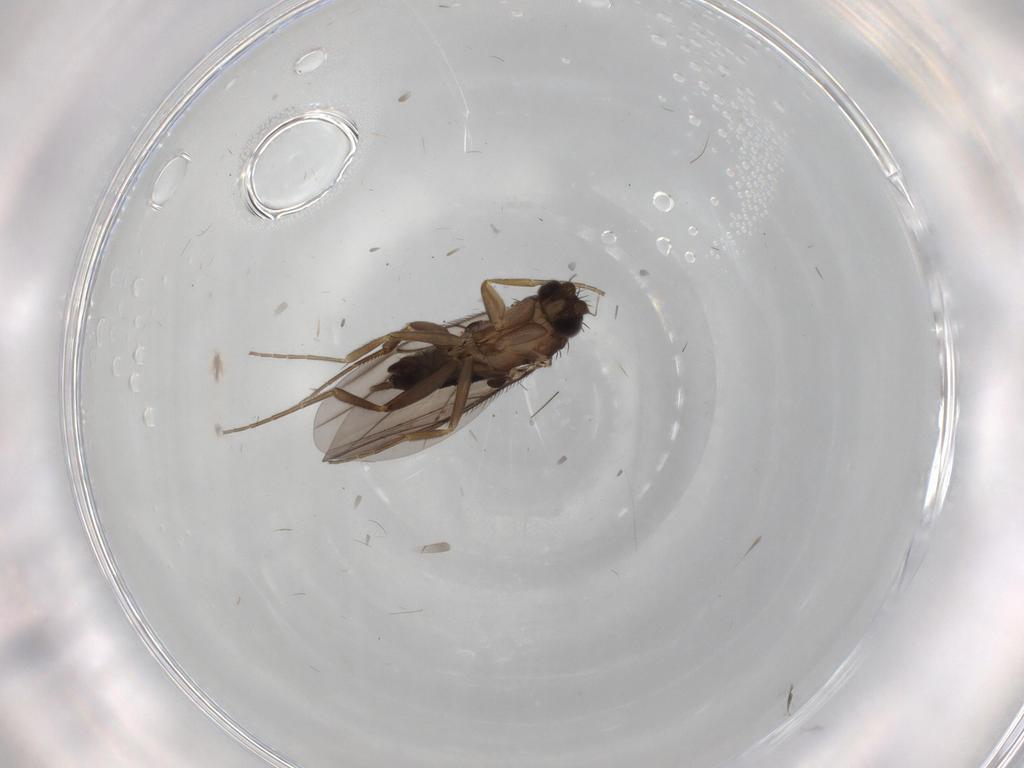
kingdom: Animalia
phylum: Arthropoda
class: Insecta
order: Diptera
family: Phoridae
